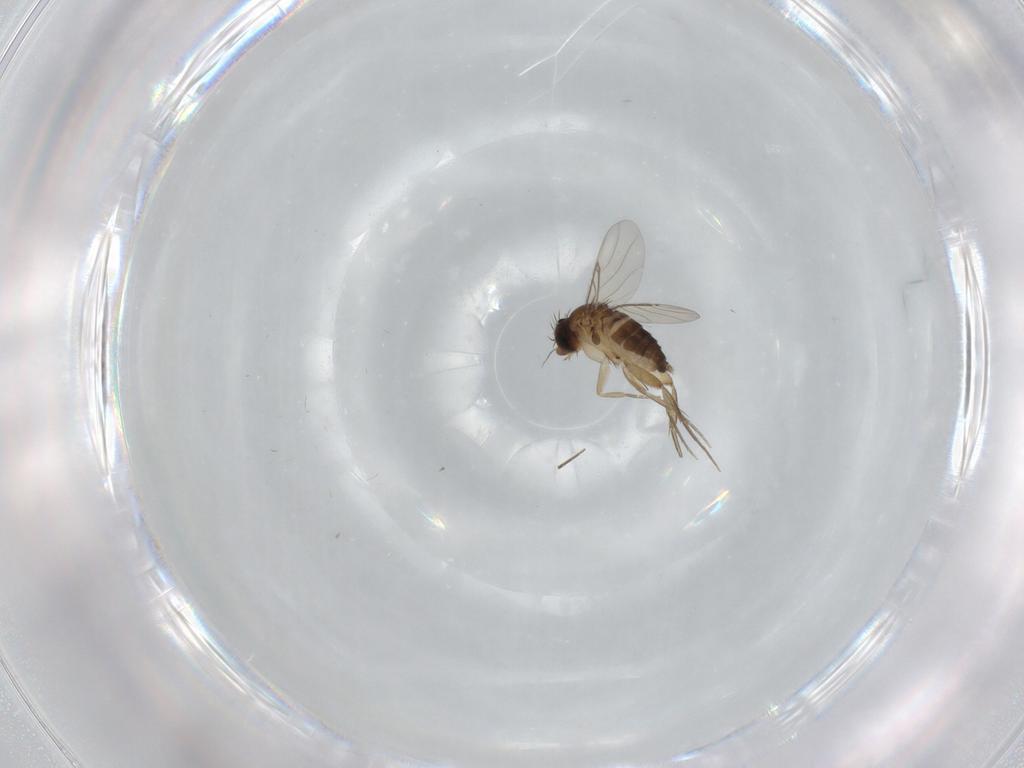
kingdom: Animalia
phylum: Arthropoda
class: Insecta
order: Diptera
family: Phoridae
